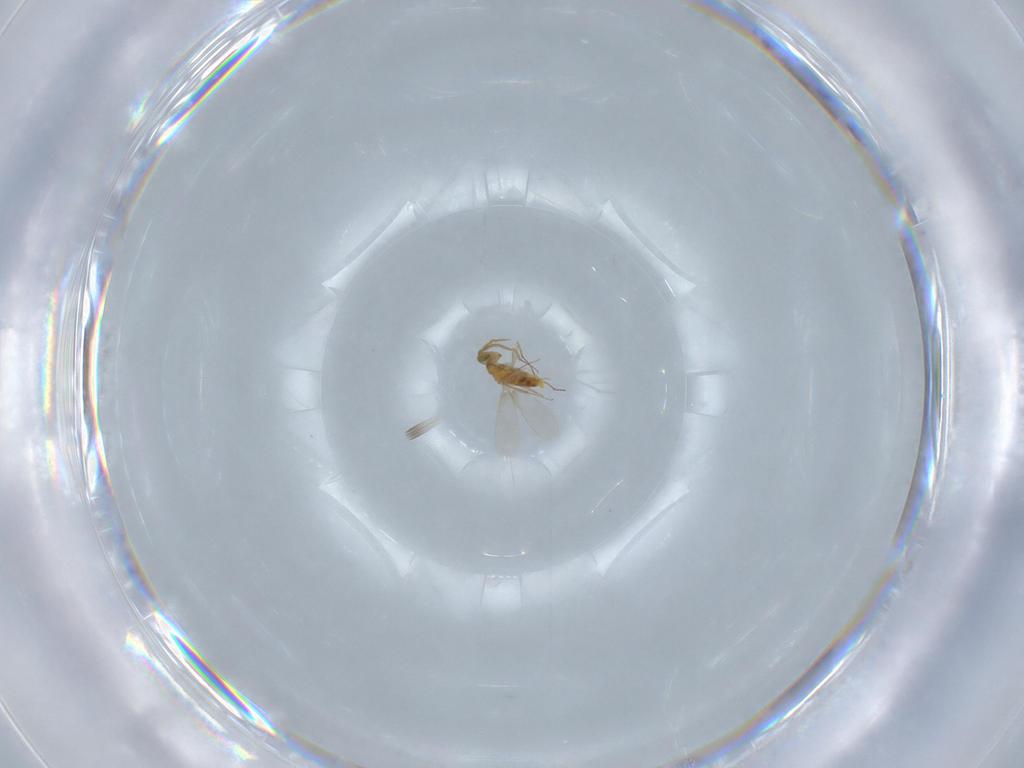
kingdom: Animalia
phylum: Arthropoda
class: Insecta
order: Hymenoptera
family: Aphelinidae
